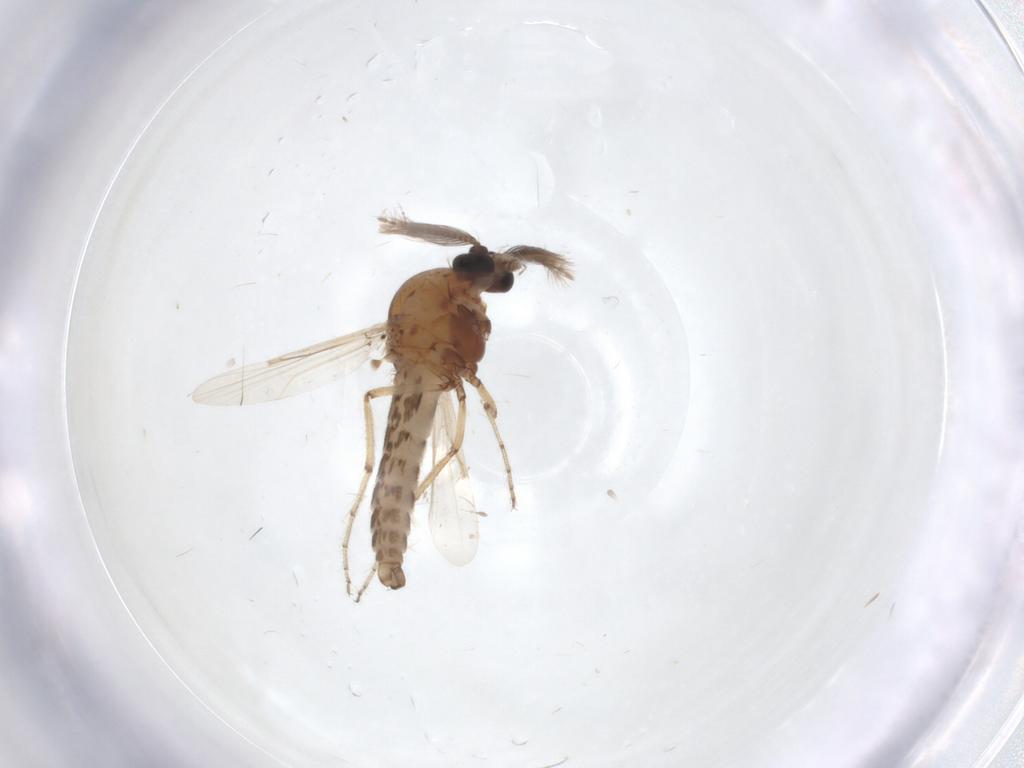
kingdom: Animalia
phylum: Arthropoda
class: Insecta
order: Diptera
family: Ceratopogonidae
